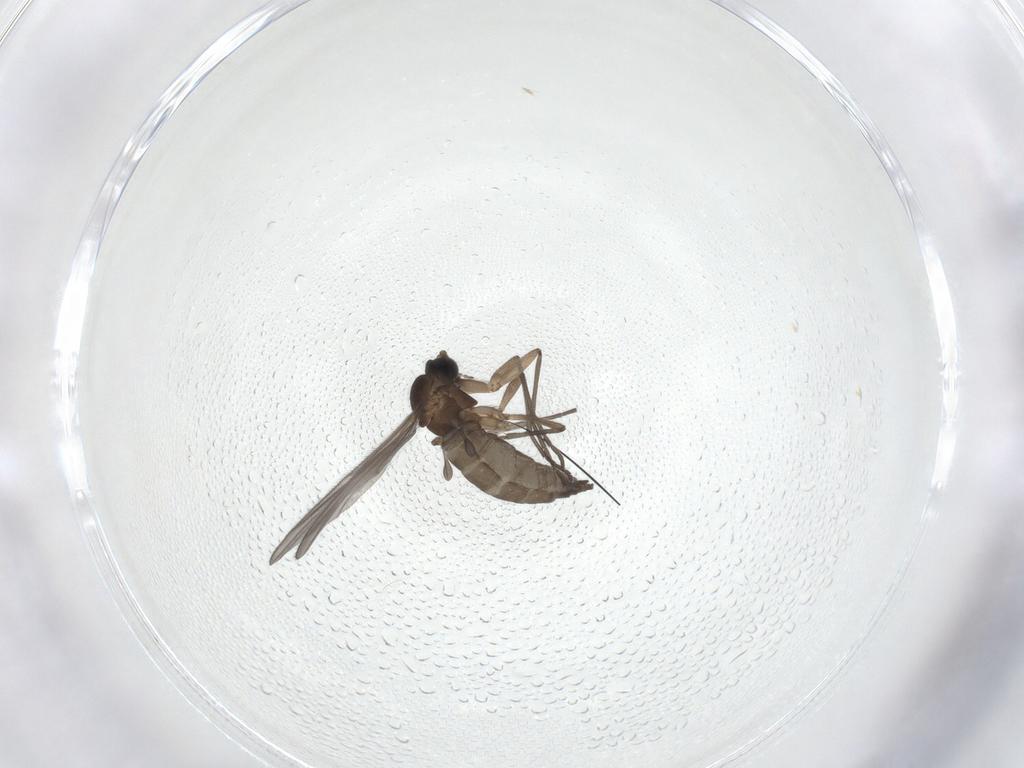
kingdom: Animalia
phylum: Arthropoda
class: Insecta
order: Diptera
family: Sciaridae
